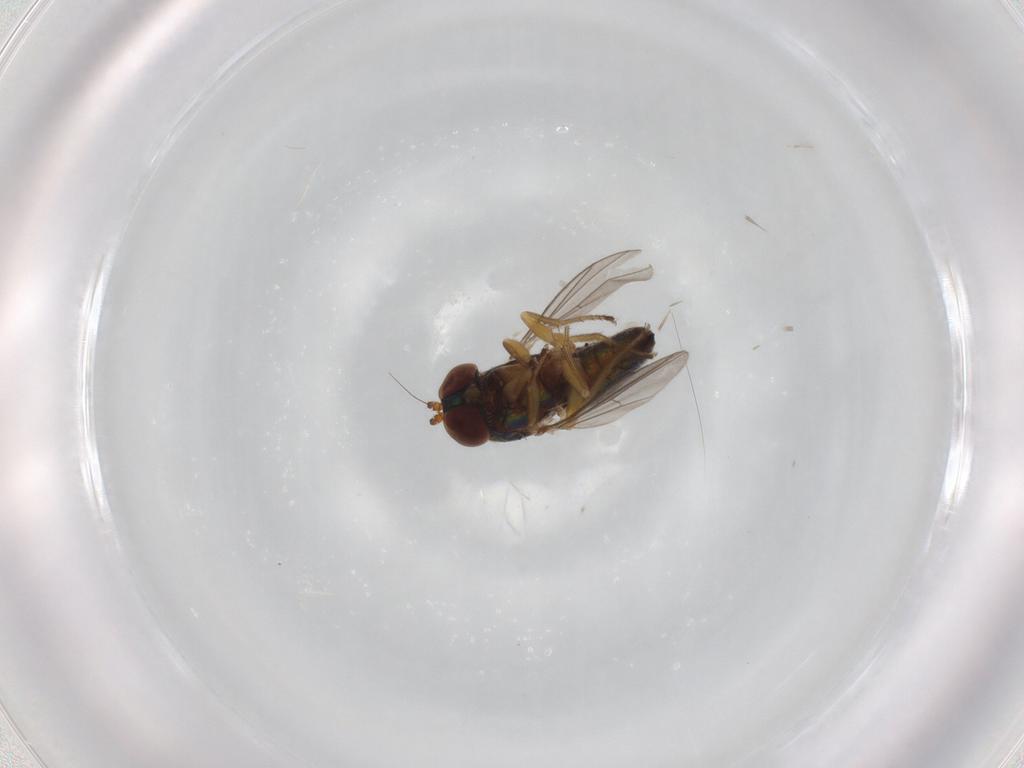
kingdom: Animalia
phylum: Arthropoda
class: Insecta
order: Diptera
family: Dolichopodidae
